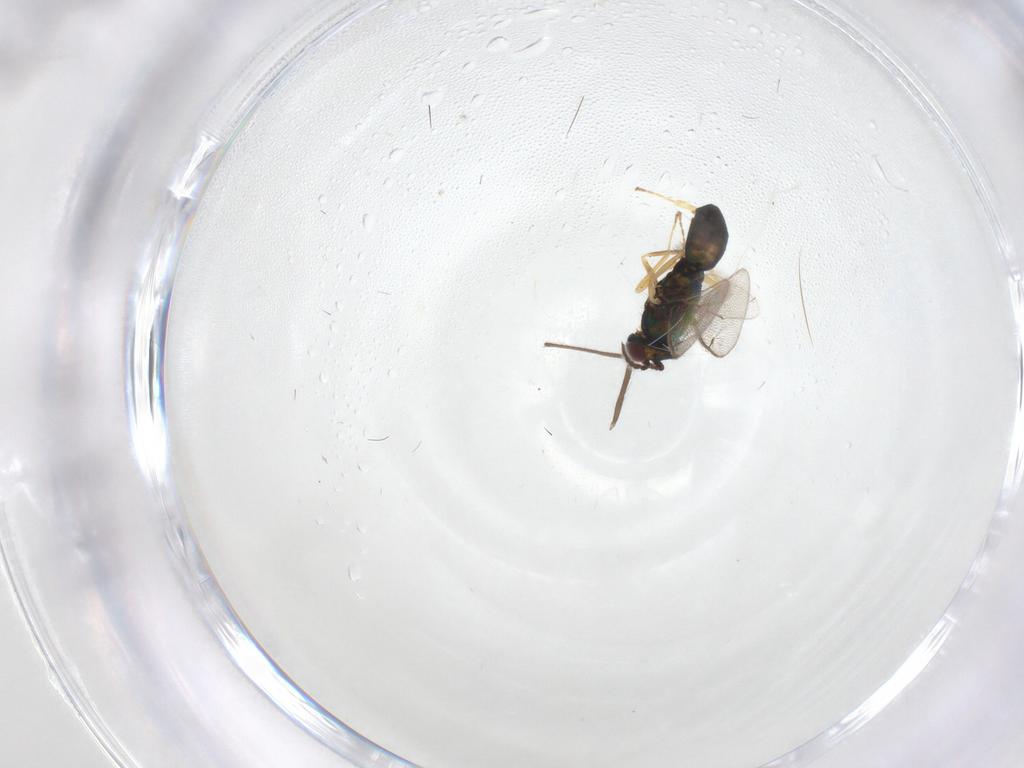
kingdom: Animalia
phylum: Arthropoda
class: Insecta
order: Hymenoptera
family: Eulophidae
